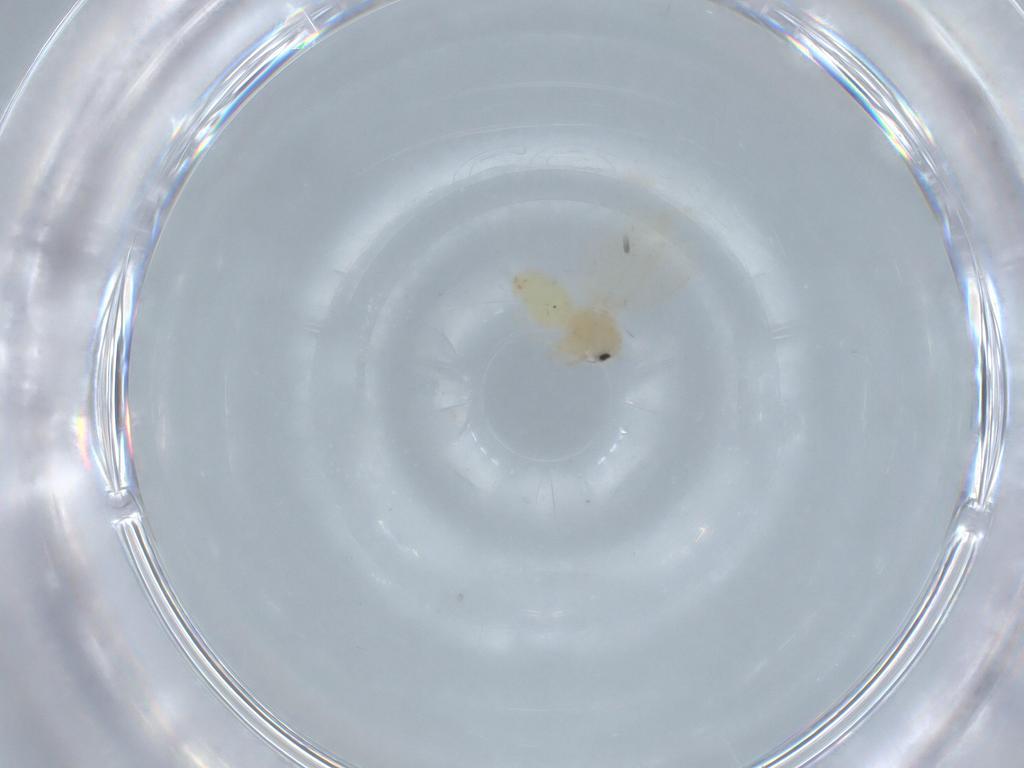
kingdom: Animalia
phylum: Arthropoda
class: Insecta
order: Hemiptera
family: Aleyrodidae
